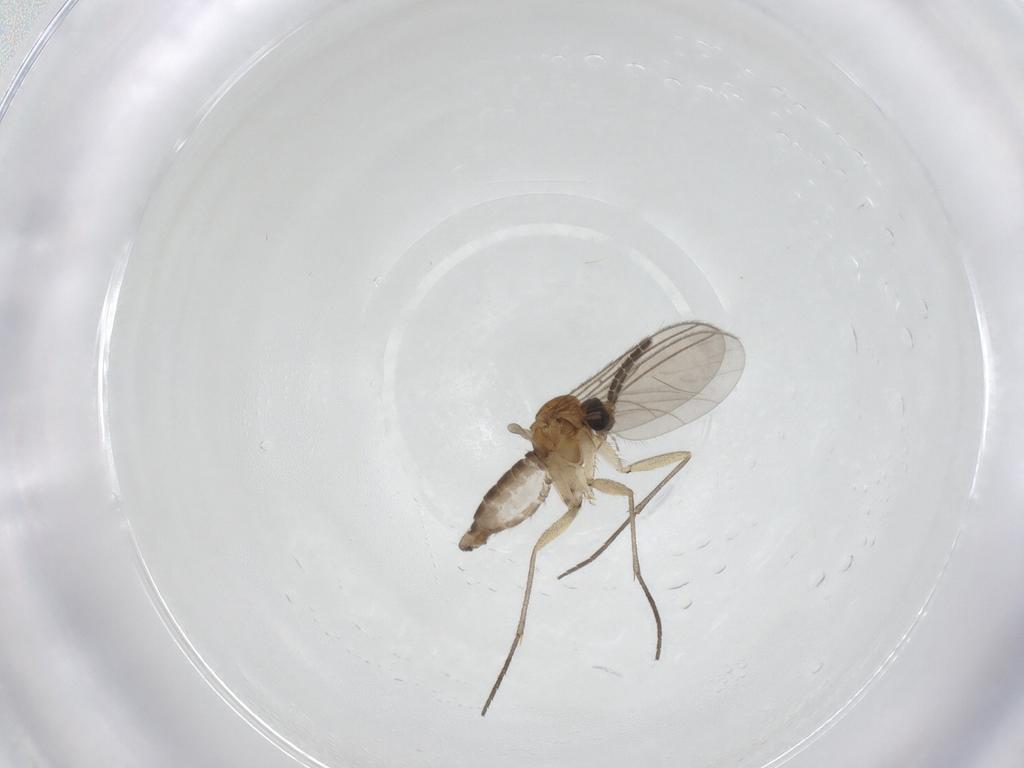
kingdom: Animalia
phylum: Arthropoda
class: Insecta
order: Diptera
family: Sciaridae
